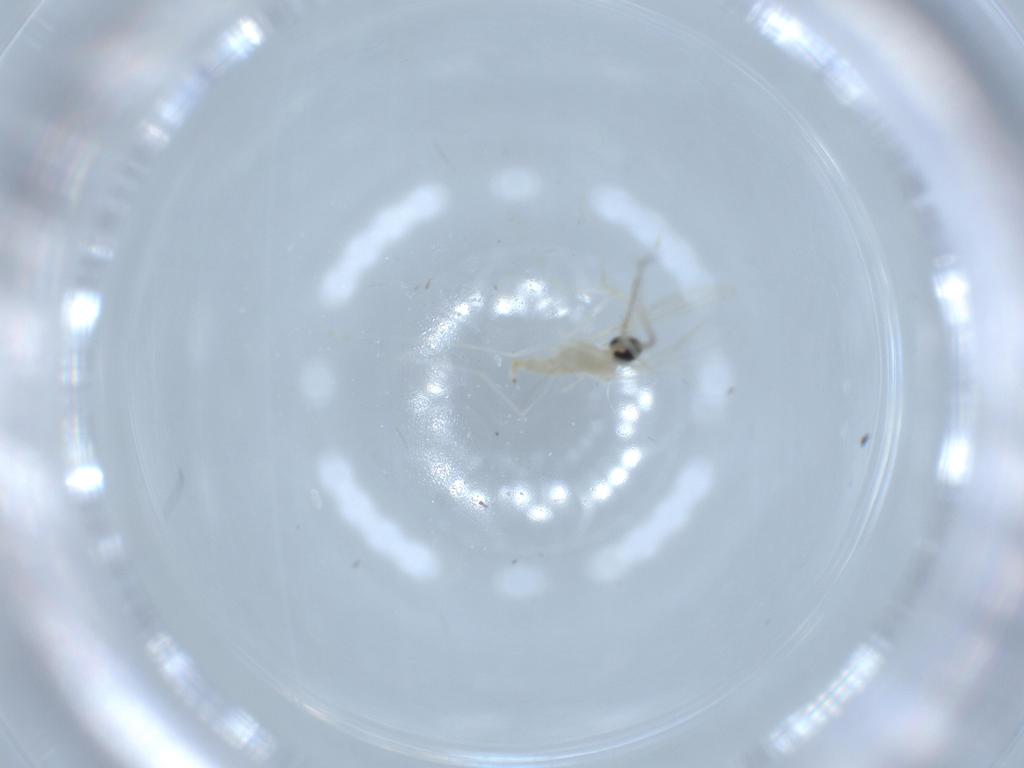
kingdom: Animalia
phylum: Arthropoda
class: Insecta
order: Diptera
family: Cecidomyiidae
